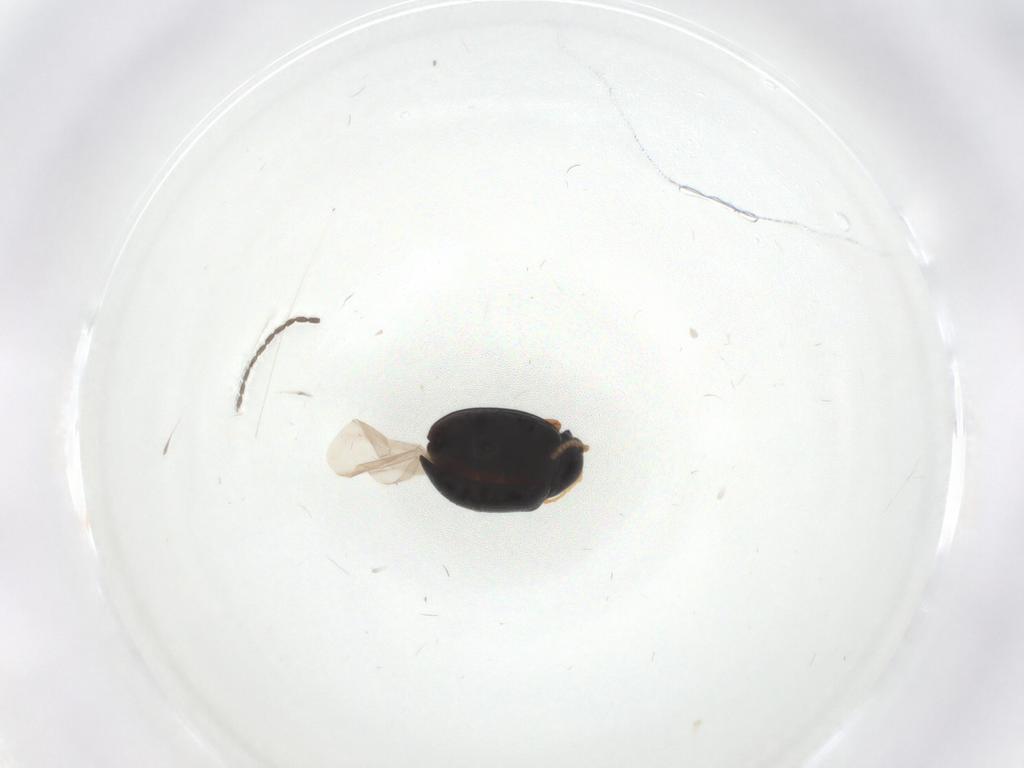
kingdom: Animalia
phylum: Arthropoda
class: Insecta
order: Coleoptera
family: Chrysomelidae
